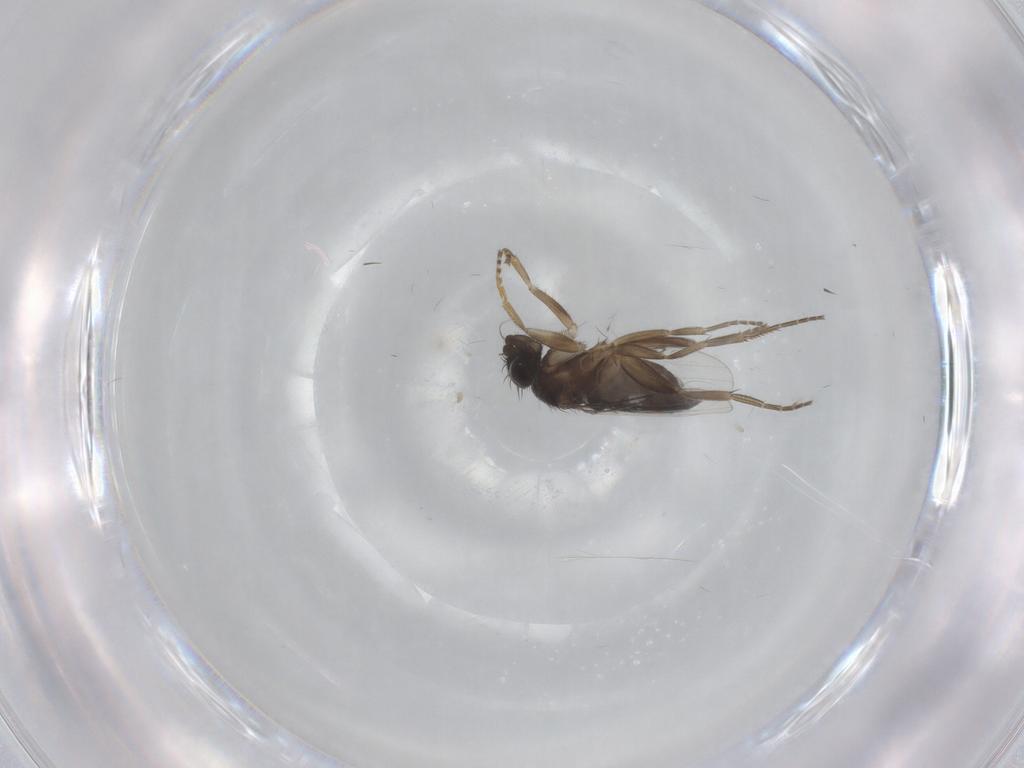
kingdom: Animalia
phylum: Arthropoda
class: Insecta
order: Diptera
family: Phoridae
